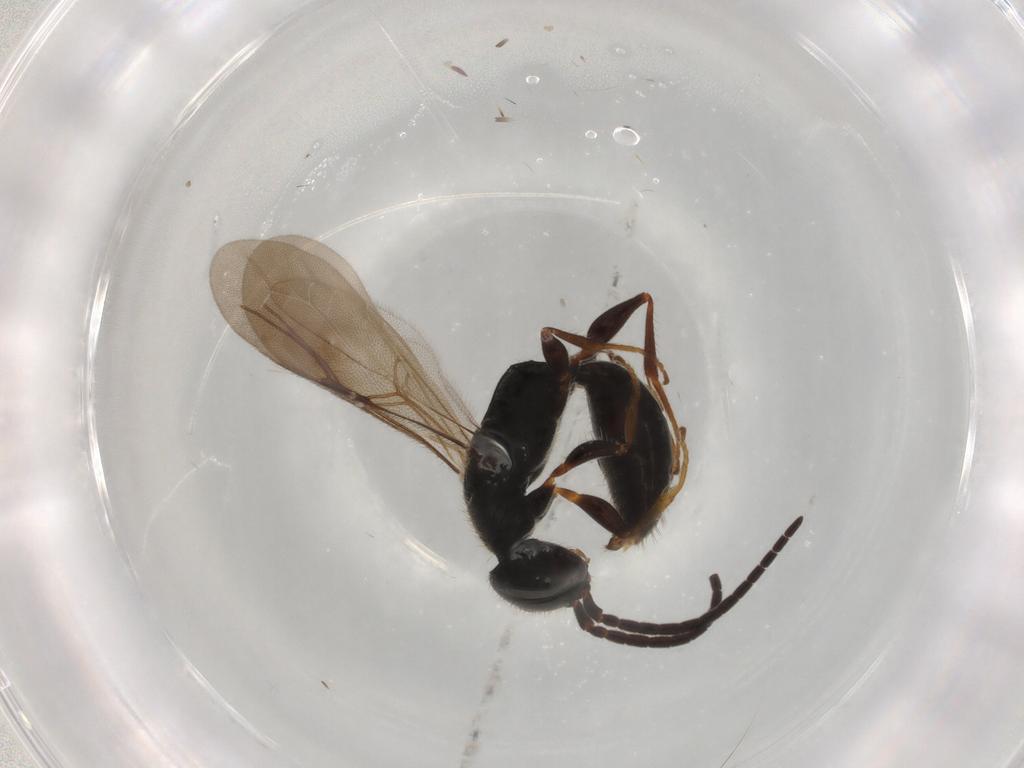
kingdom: Animalia
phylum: Arthropoda
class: Insecta
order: Hymenoptera
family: Bethylidae
